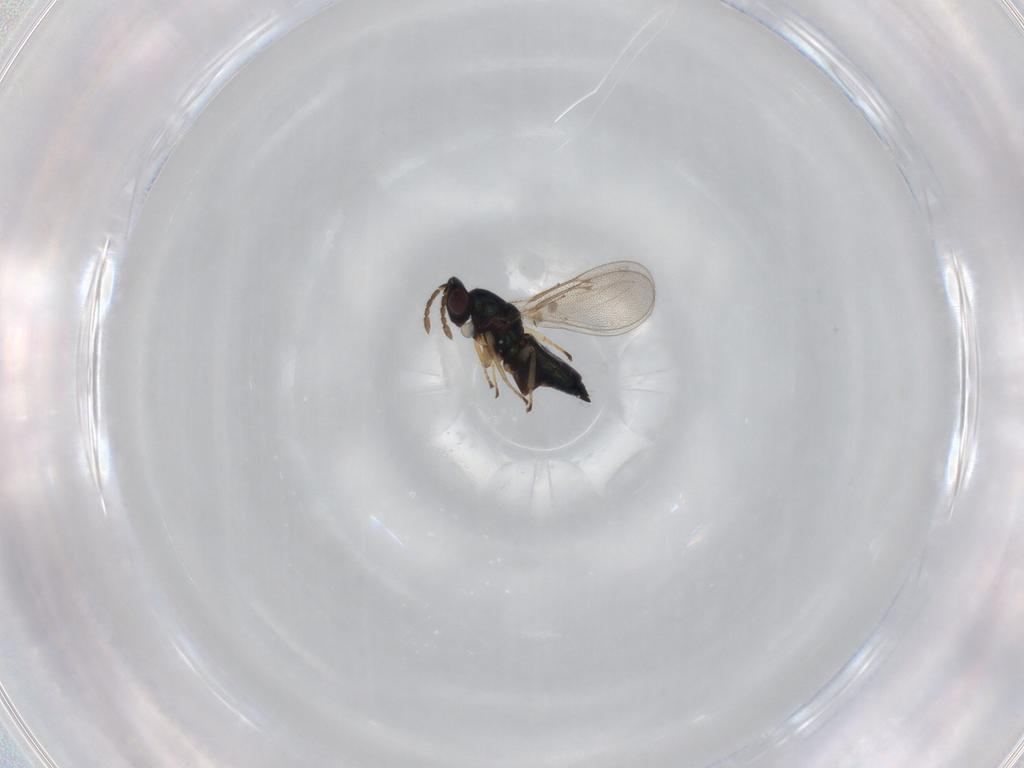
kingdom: Animalia
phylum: Arthropoda
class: Insecta
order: Hymenoptera
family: Eulophidae
